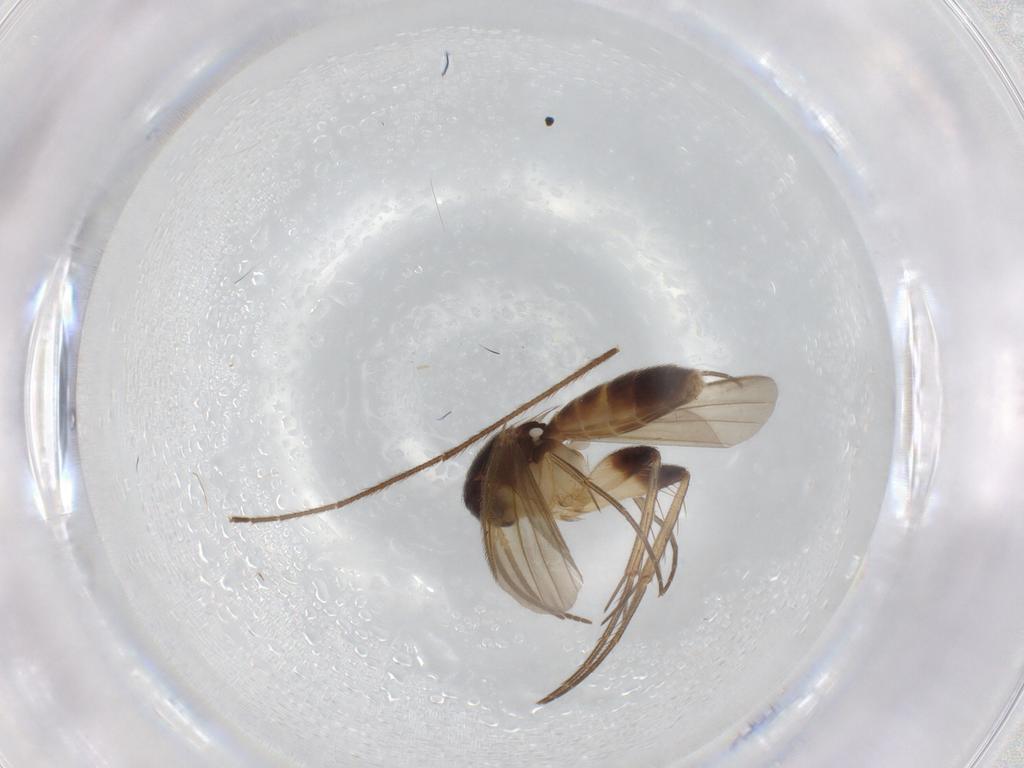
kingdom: Animalia
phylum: Arthropoda
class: Insecta
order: Diptera
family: Chironomidae
